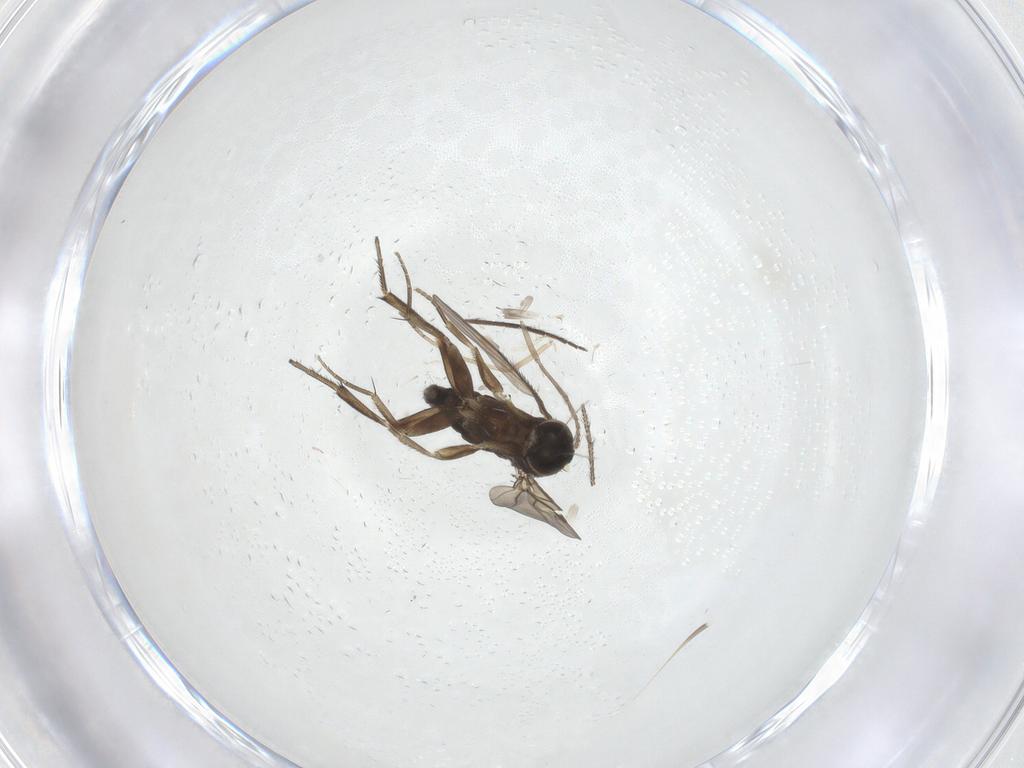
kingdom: Animalia
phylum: Arthropoda
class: Insecta
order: Diptera
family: Phoridae
